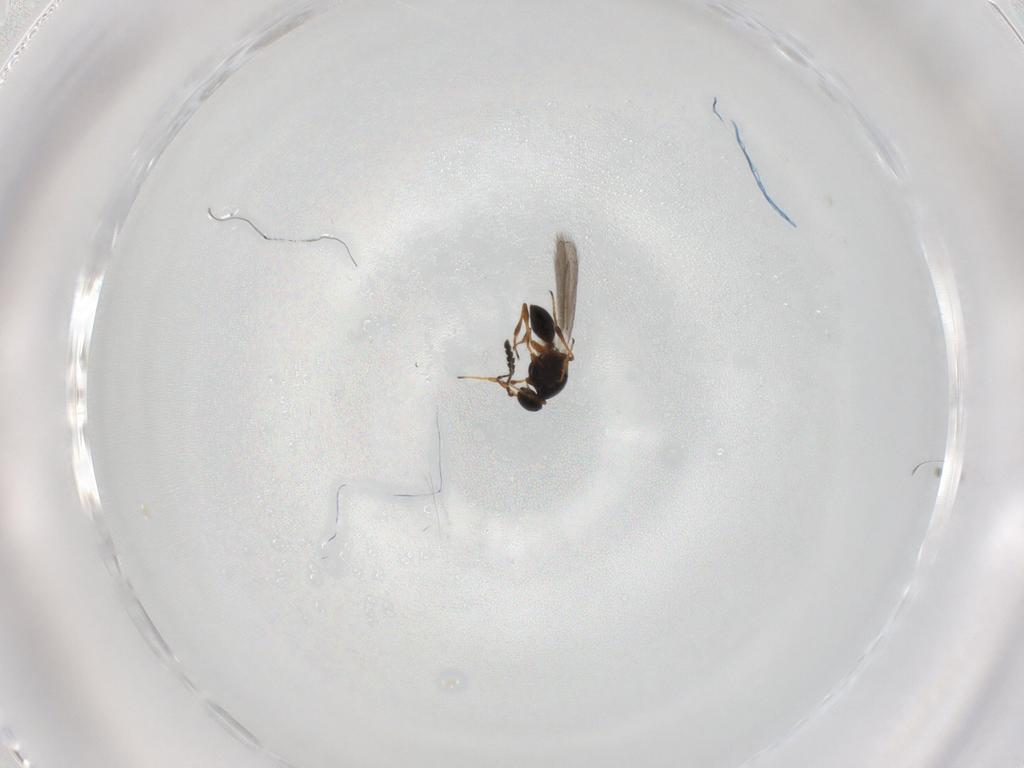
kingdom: Animalia
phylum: Arthropoda
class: Insecta
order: Hymenoptera
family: Platygastridae
